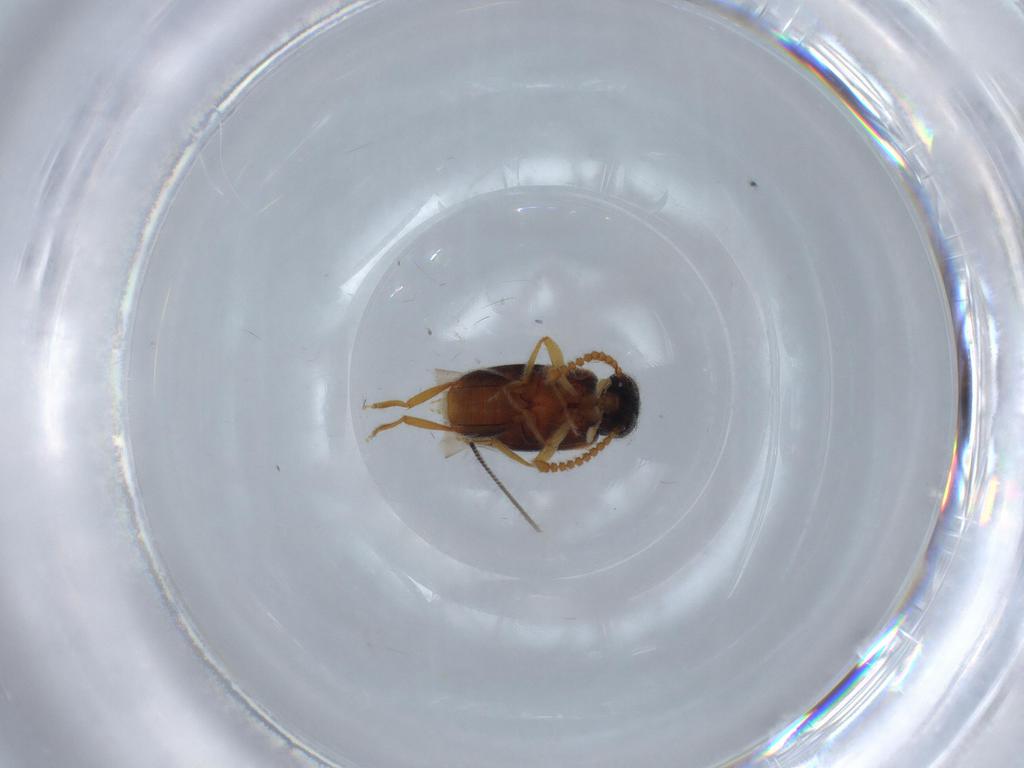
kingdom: Animalia
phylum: Arthropoda
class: Insecta
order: Coleoptera
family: Aderidae
